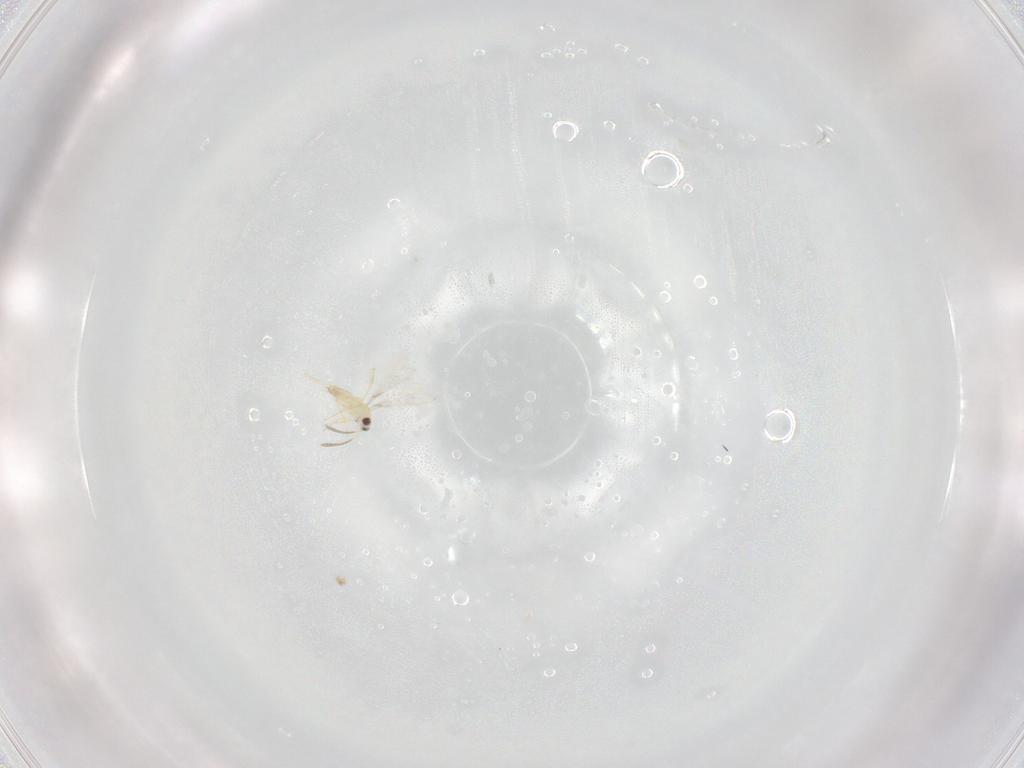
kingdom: Animalia
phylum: Arthropoda
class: Insecta
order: Hymenoptera
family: Mymaridae
